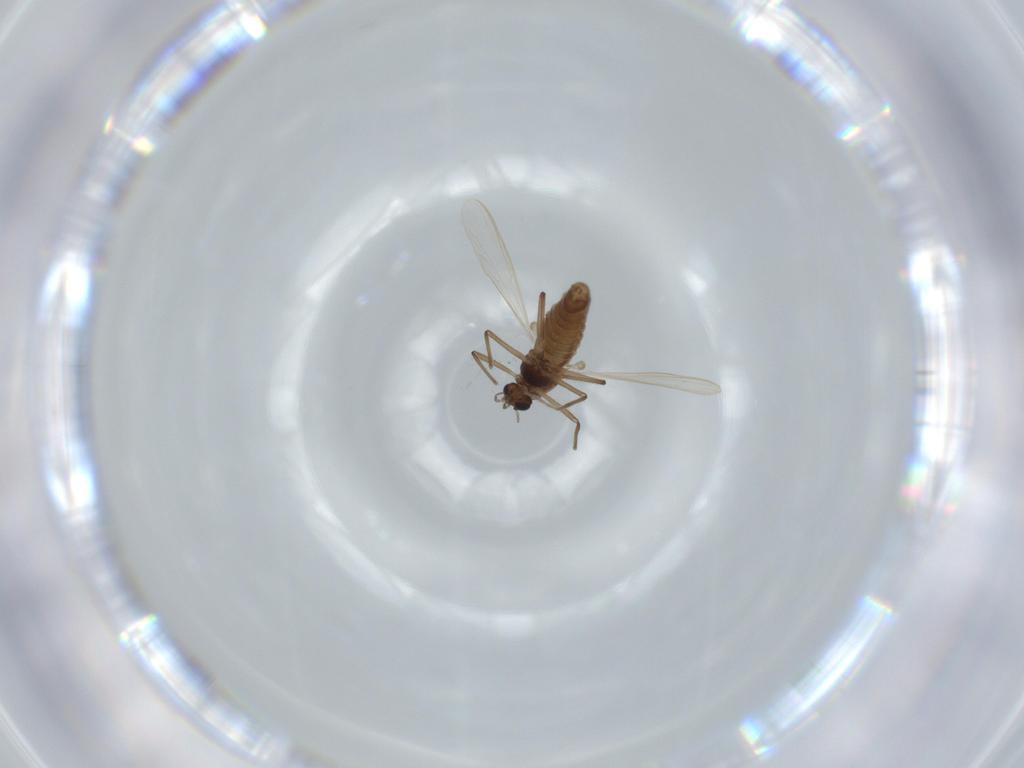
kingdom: Animalia
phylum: Arthropoda
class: Insecta
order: Diptera
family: Chironomidae
